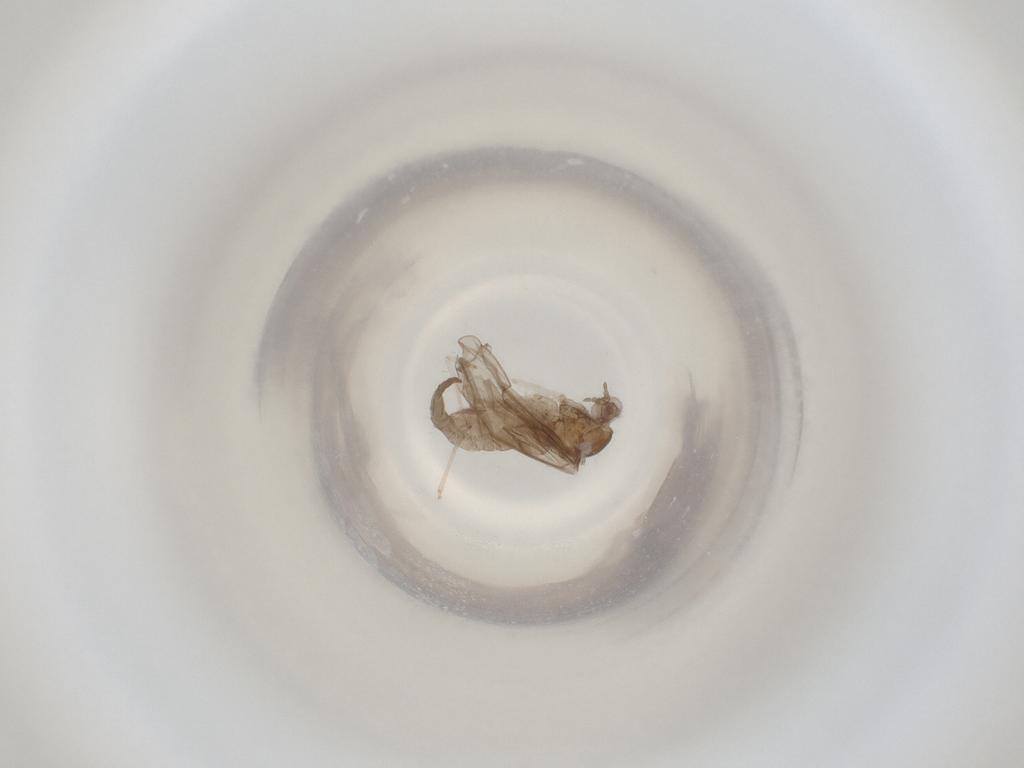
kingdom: Animalia
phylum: Arthropoda
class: Insecta
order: Diptera
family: Cecidomyiidae
